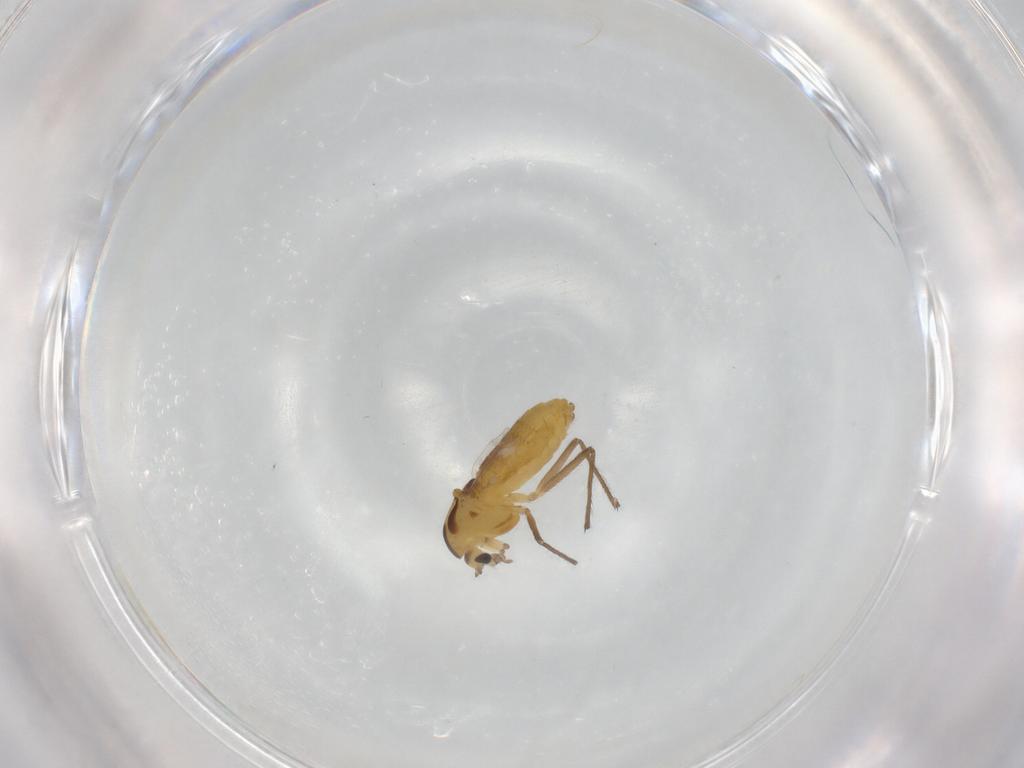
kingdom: Animalia
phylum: Arthropoda
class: Insecta
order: Diptera
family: Chironomidae
